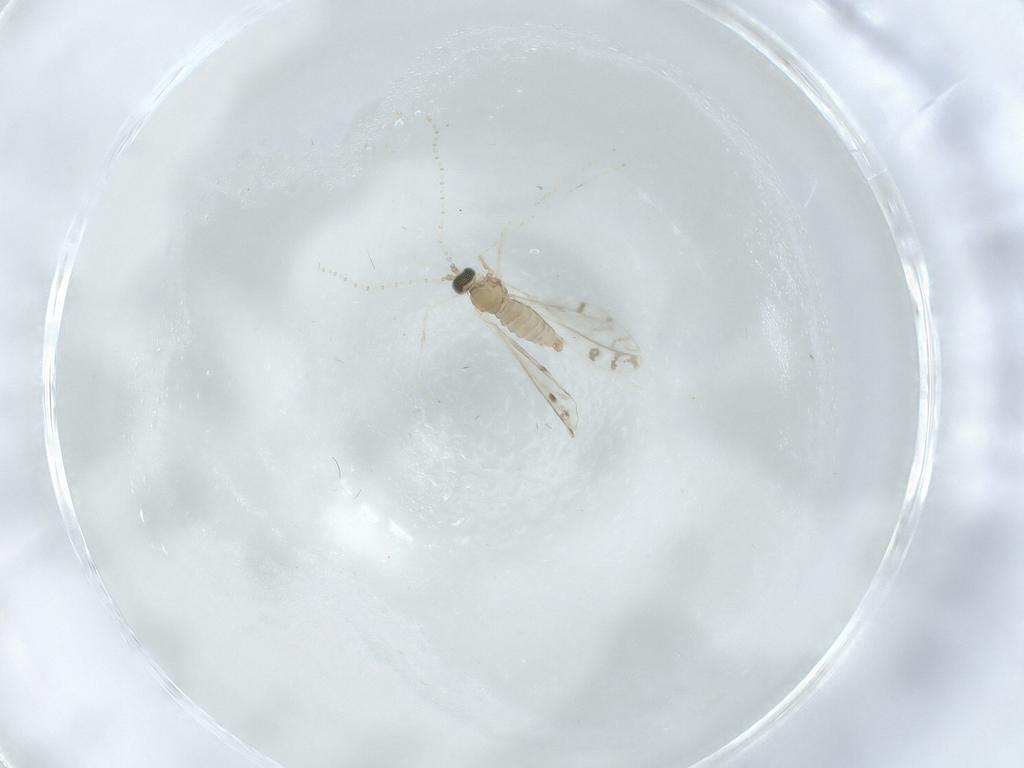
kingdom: Animalia
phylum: Arthropoda
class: Insecta
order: Diptera
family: Cecidomyiidae
